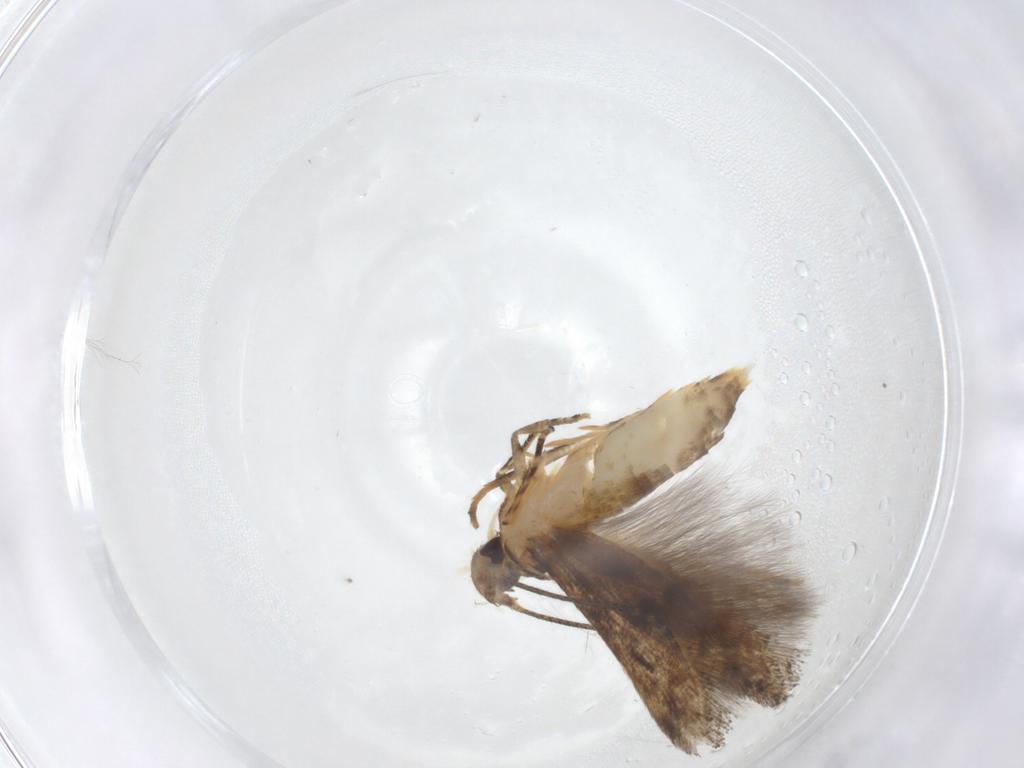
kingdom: Animalia
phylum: Arthropoda
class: Insecta
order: Lepidoptera
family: Momphidae
